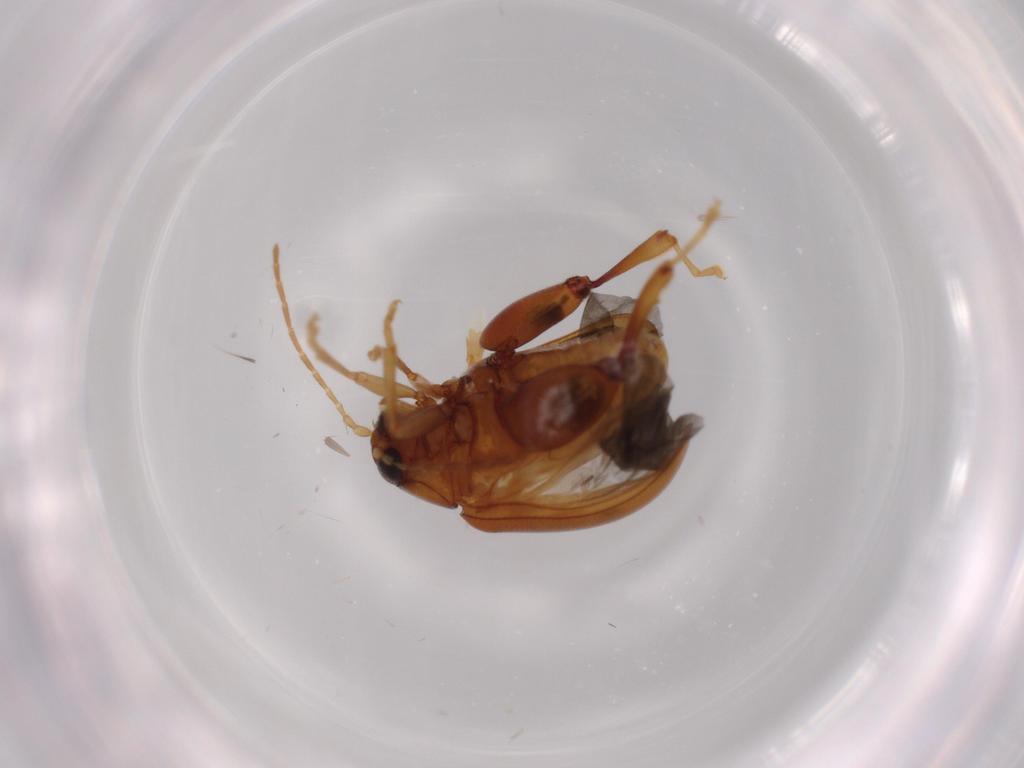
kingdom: Animalia
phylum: Arthropoda
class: Insecta
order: Coleoptera
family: Chrysomelidae
